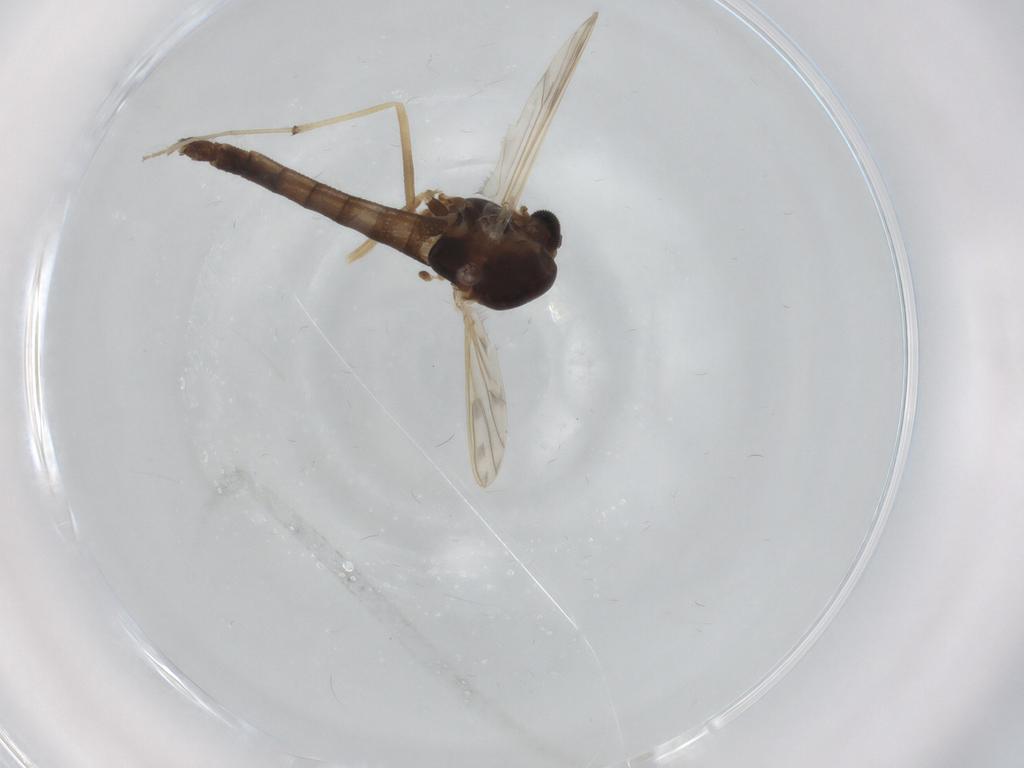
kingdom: Animalia
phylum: Arthropoda
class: Insecta
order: Diptera
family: Chironomidae
